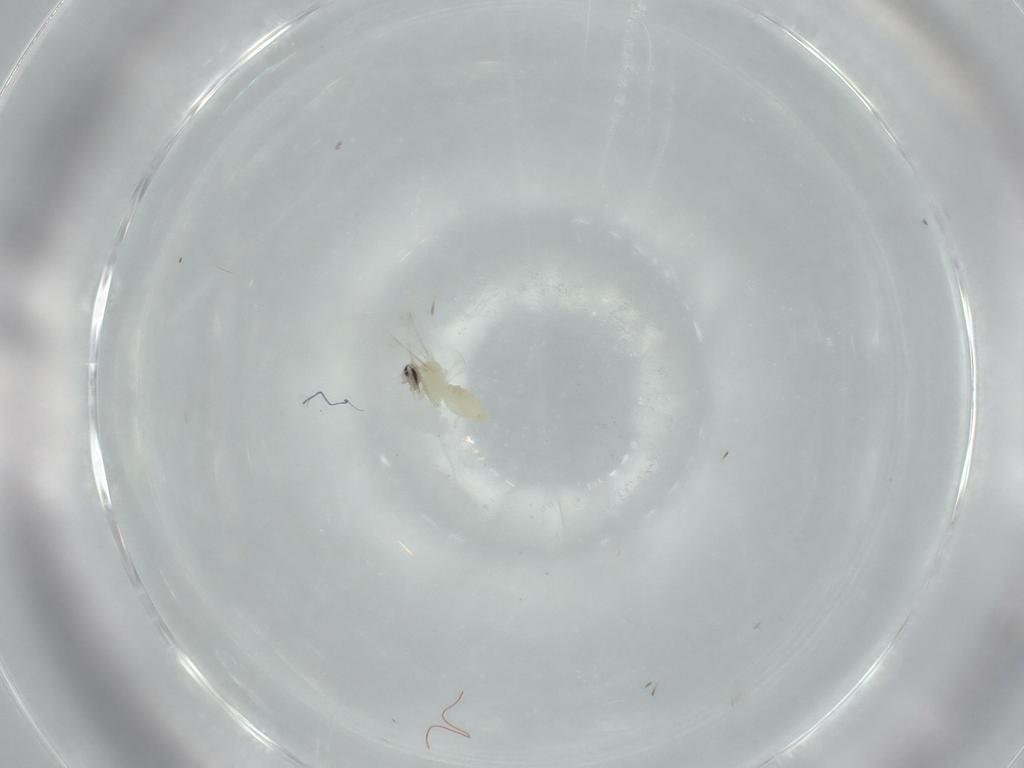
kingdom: Animalia
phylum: Arthropoda
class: Insecta
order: Diptera
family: Cecidomyiidae
